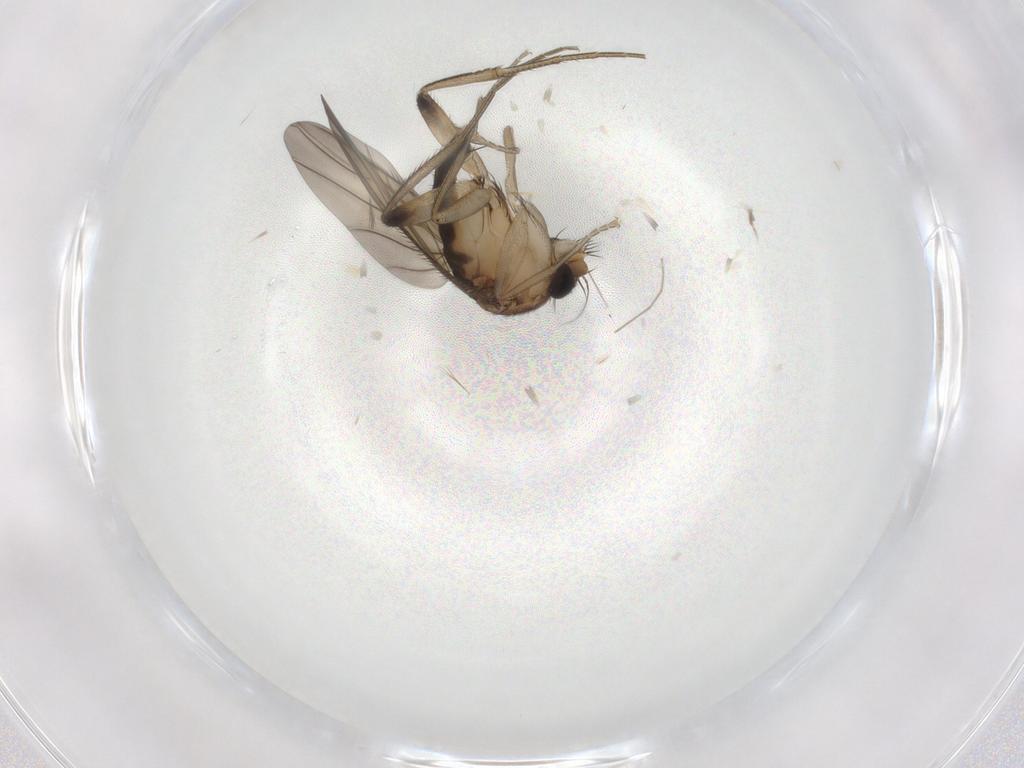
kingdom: Animalia
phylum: Arthropoda
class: Insecta
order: Diptera
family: Phoridae
